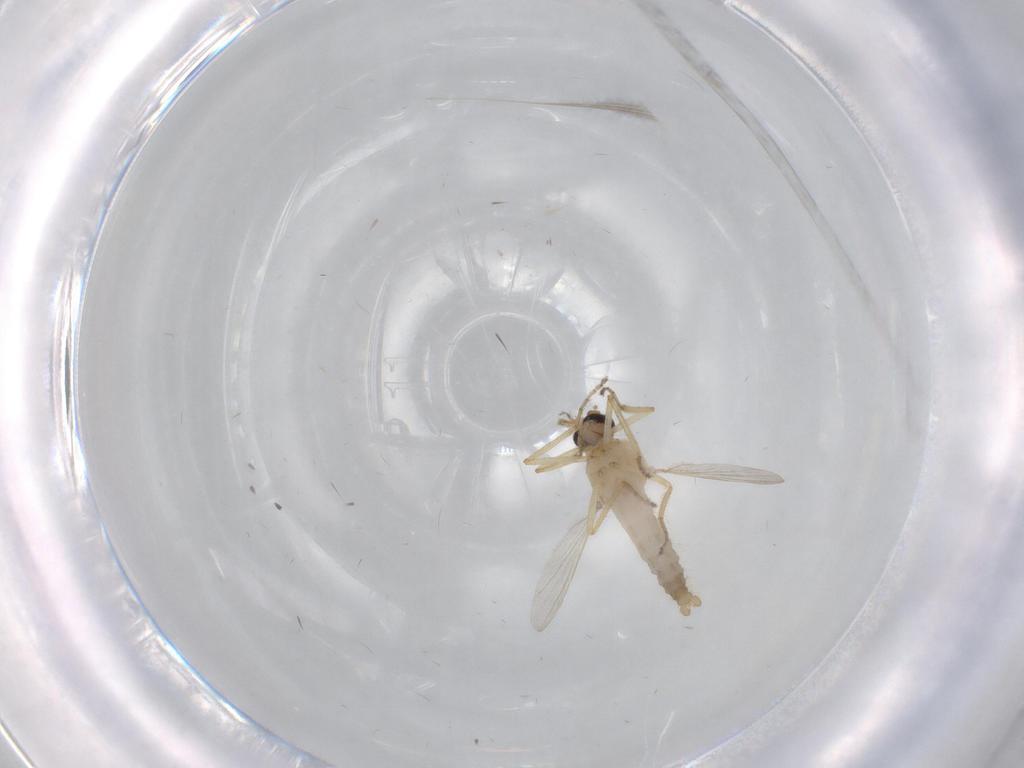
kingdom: Animalia
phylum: Arthropoda
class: Insecta
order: Diptera
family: Ceratopogonidae
